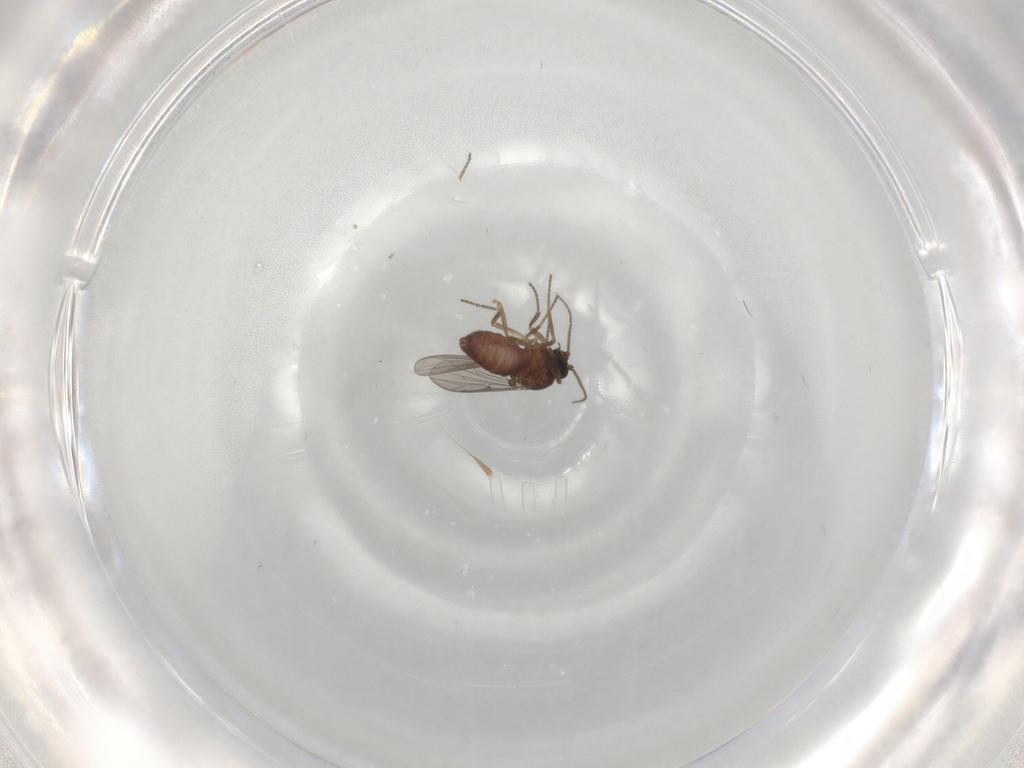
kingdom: Animalia
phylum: Arthropoda
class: Insecta
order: Diptera
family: Ceratopogonidae
